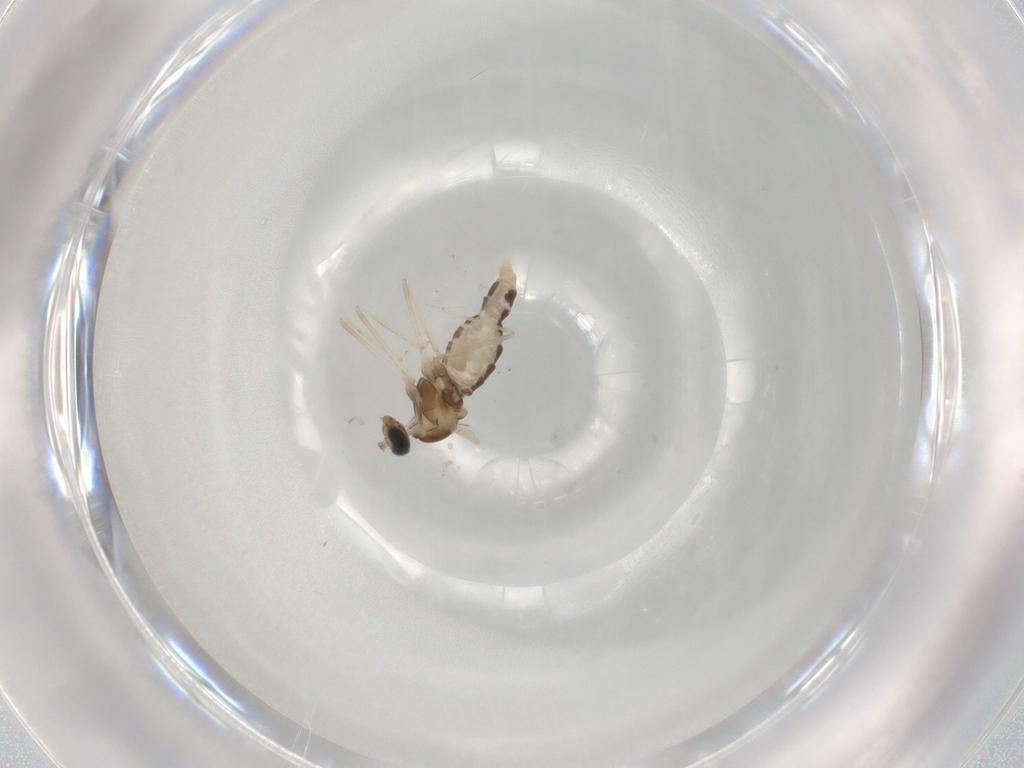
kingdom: Animalia
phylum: Arthropoda
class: Insecta
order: Diptera
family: Cecidomyiidae
